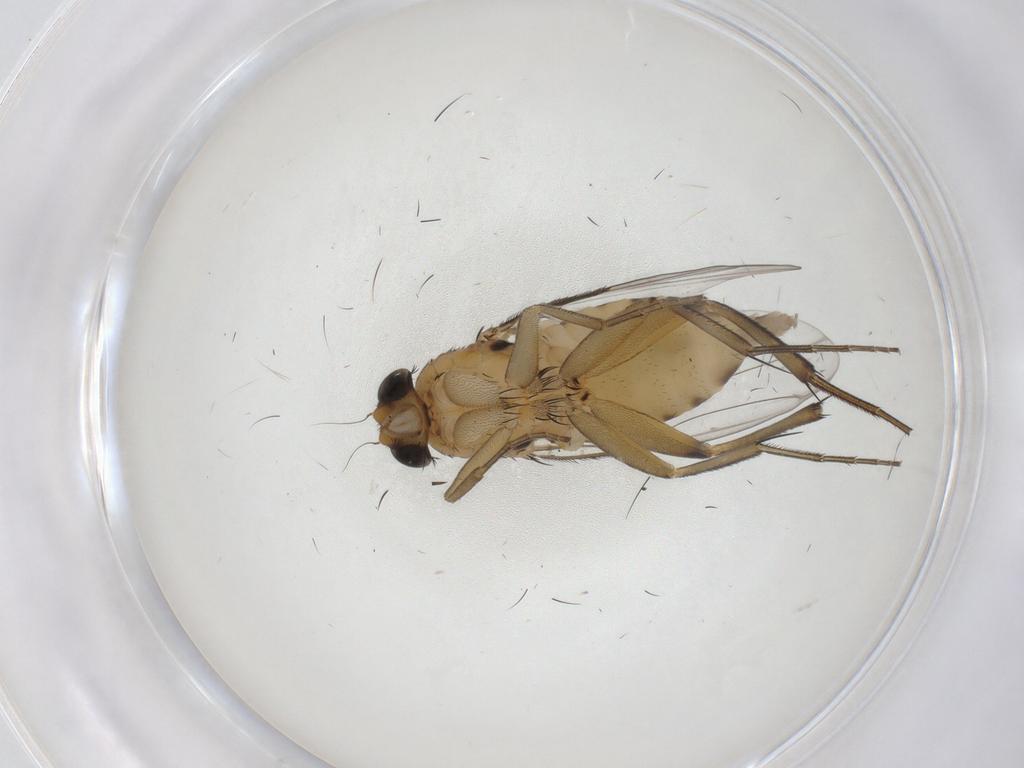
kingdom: Animalia
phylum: Arthropoda
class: Insecta
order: Diptera
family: Phoridae
